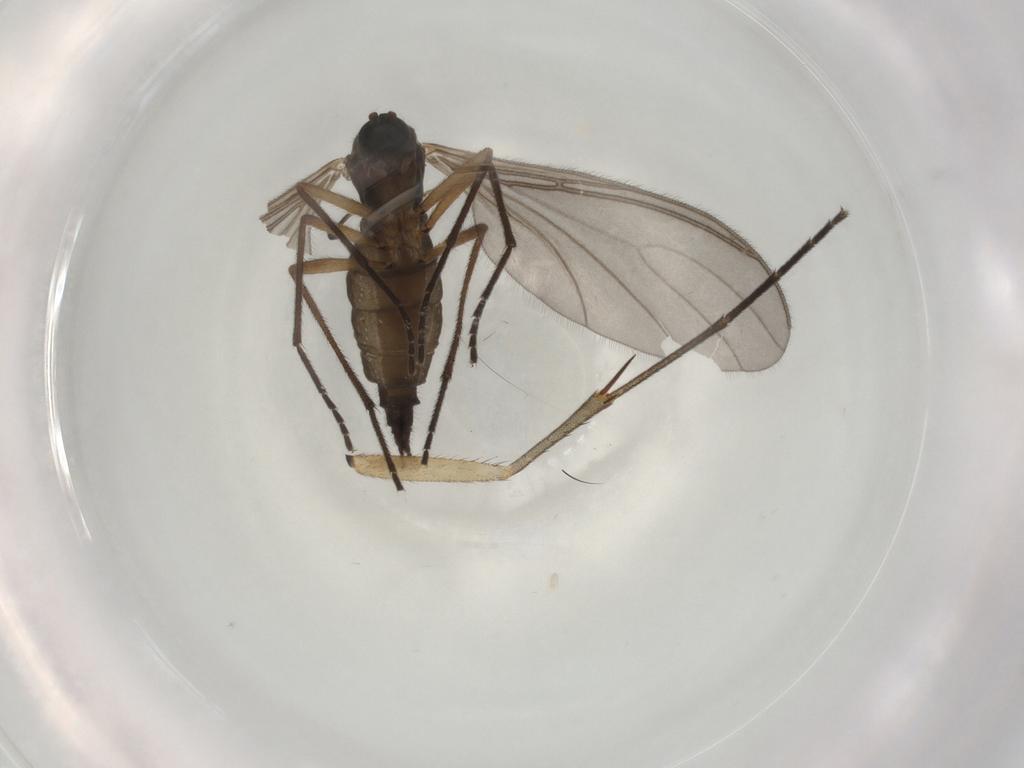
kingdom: Animalia
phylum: Arthropoda
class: Insecta
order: Diptera
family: Sciaridae
